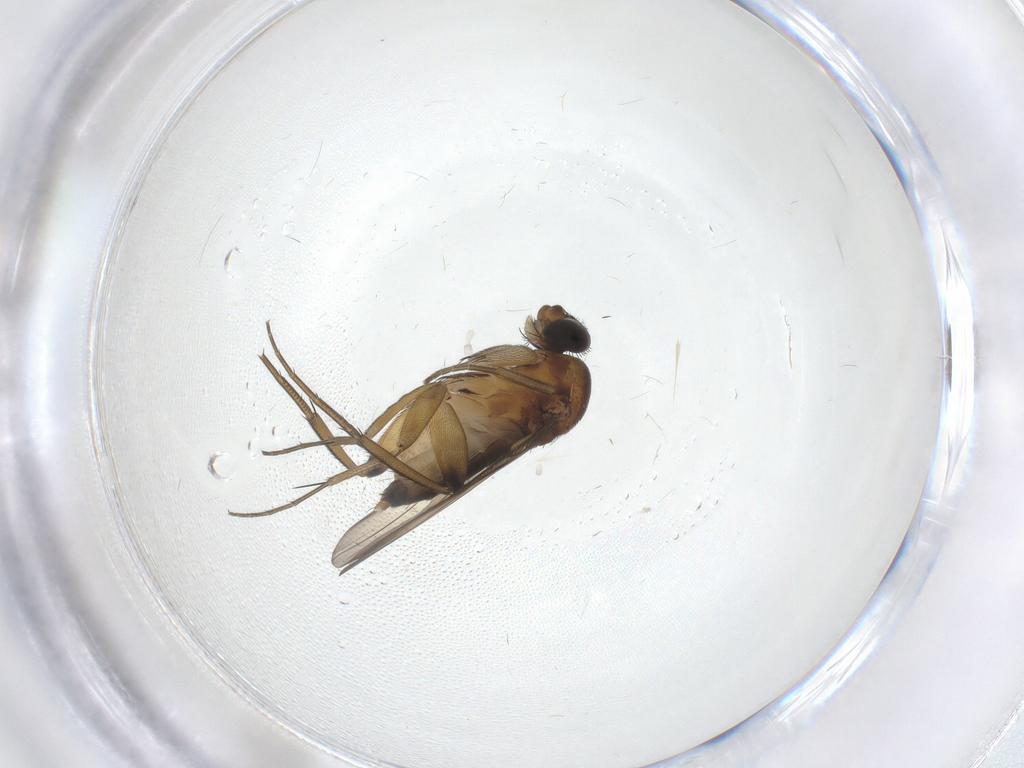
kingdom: Animalia
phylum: Arthropoda
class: Insecta
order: Diptera
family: Phoridae
